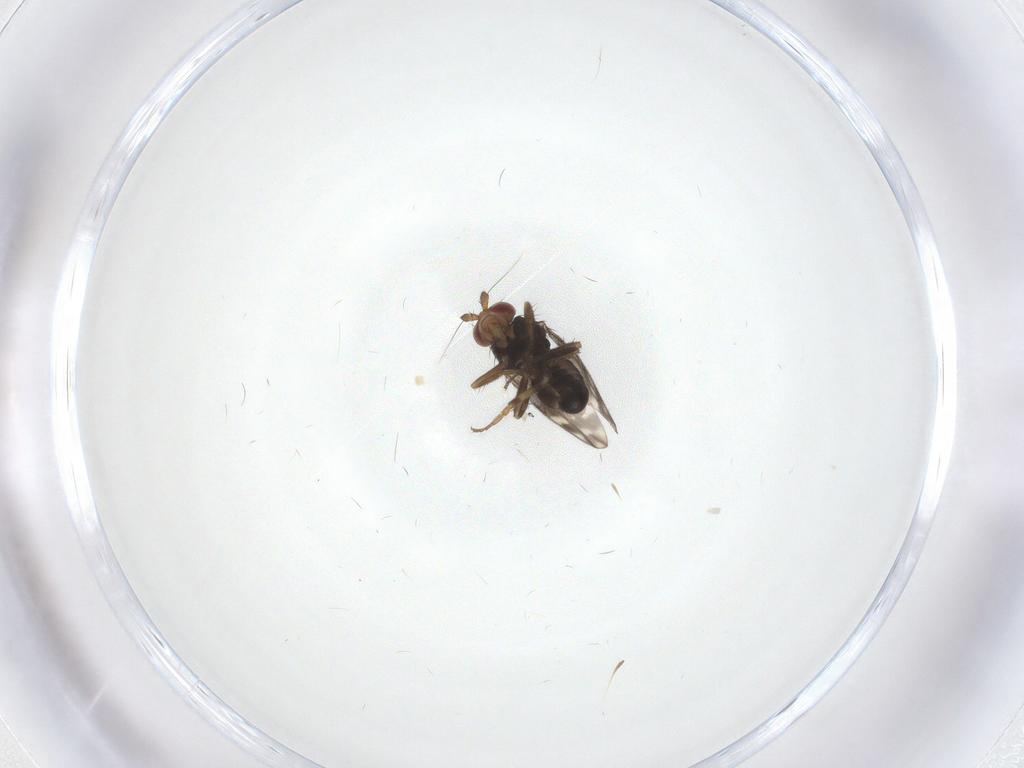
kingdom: Animalia
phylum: Arthropoda
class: Insecta
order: Diptera
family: Sphaeroceridae
